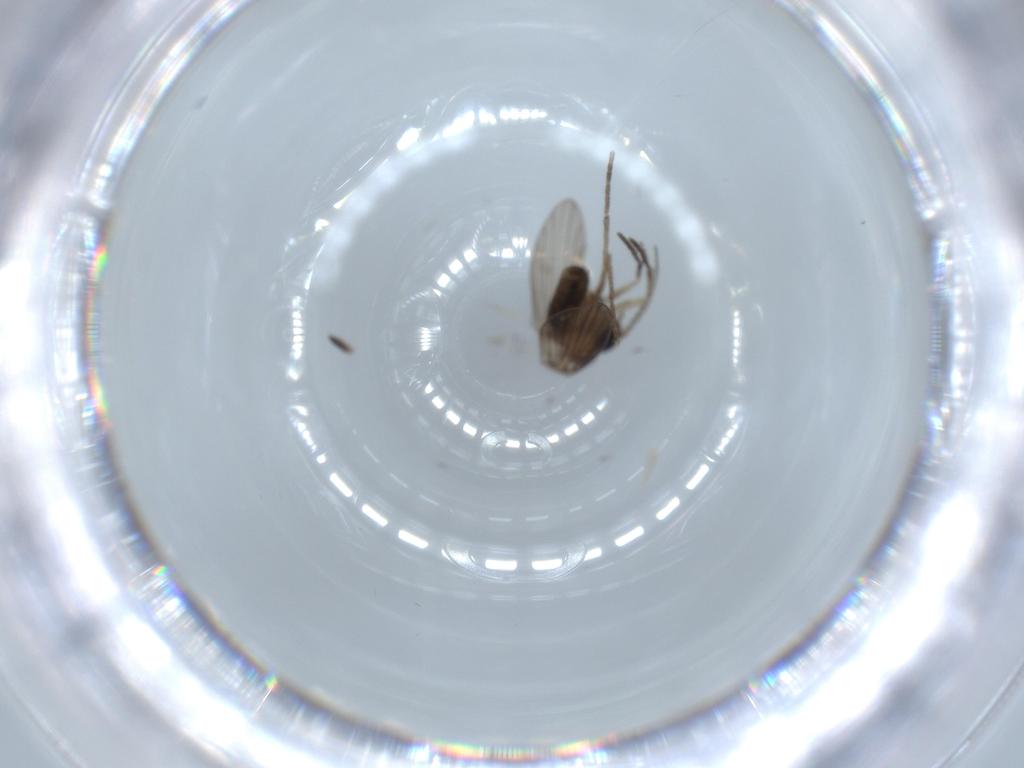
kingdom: Animalia
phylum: Arthropoda
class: Insecta
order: Diptera
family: Psychodidae
